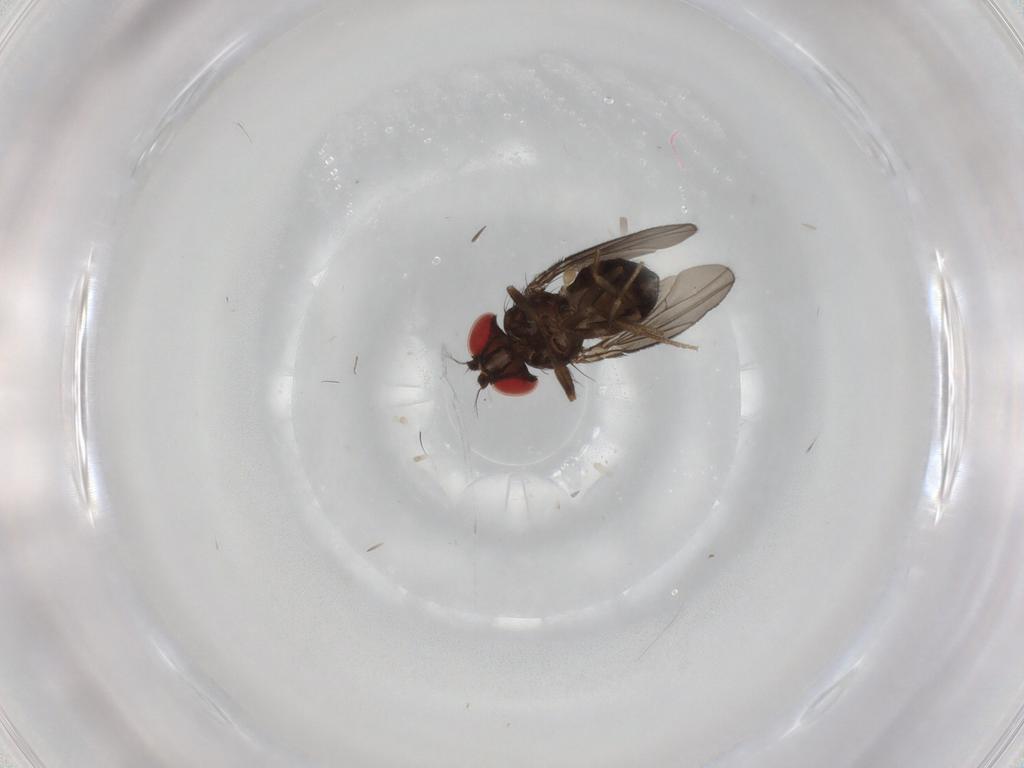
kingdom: Animalia
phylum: Arthropoda
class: Insecta
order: Diptera
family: Drosophilidae
